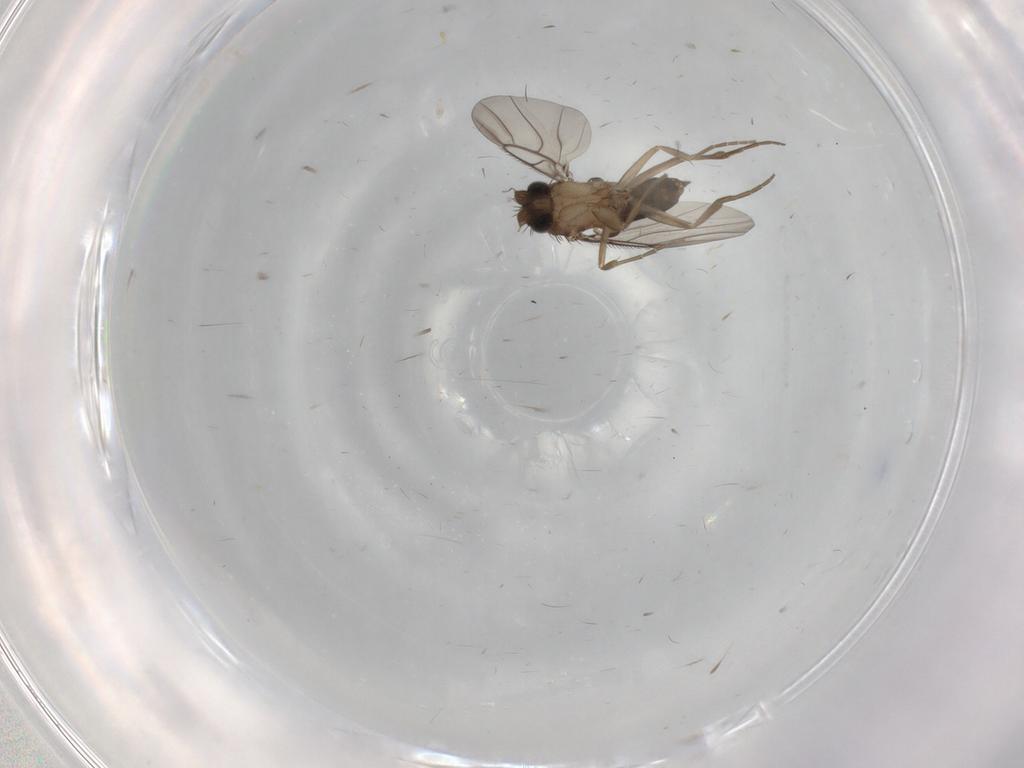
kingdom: Animalia
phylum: Arthropoda
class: Insecta
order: Diptera
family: Phoridae
